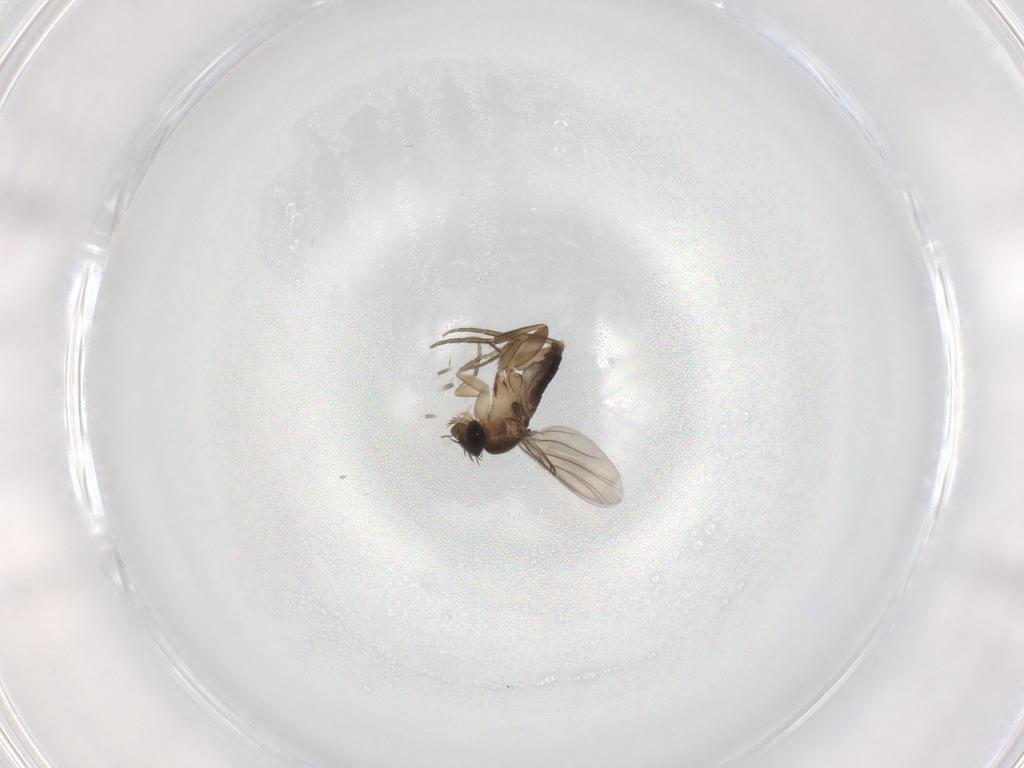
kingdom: Animalia
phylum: Arthropoda
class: Insecta
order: Diptera
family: Phoridae
